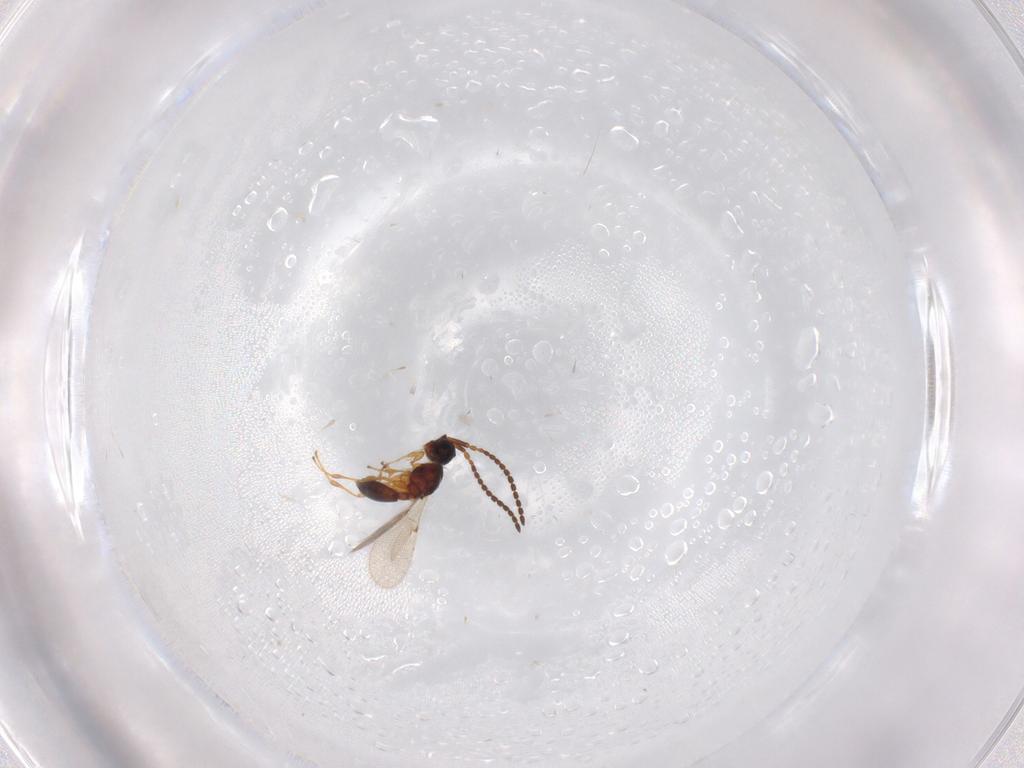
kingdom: Animalia
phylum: Arthropoda
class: Insecta
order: Hymenoptera
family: Diapriidae
